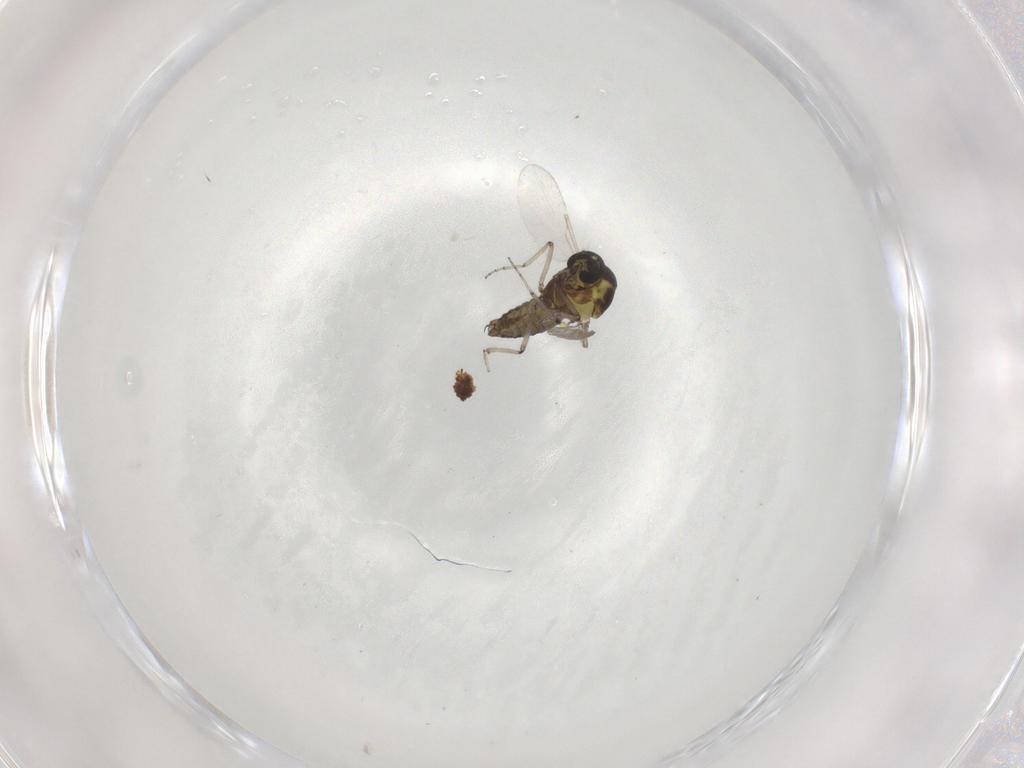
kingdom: Animalia
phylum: Arthropoda
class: Insecta
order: Diptera
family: Ceratopogonidae
